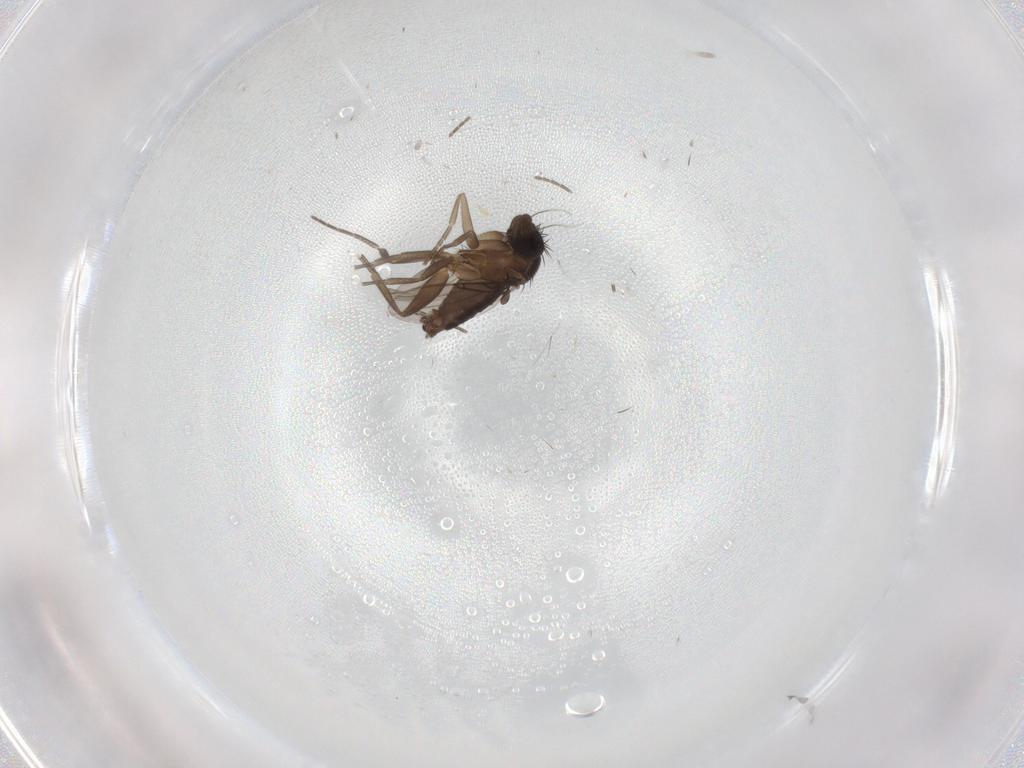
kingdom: Animalia
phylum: Arthropoda
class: Insecta
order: Diptera
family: Phoridae
